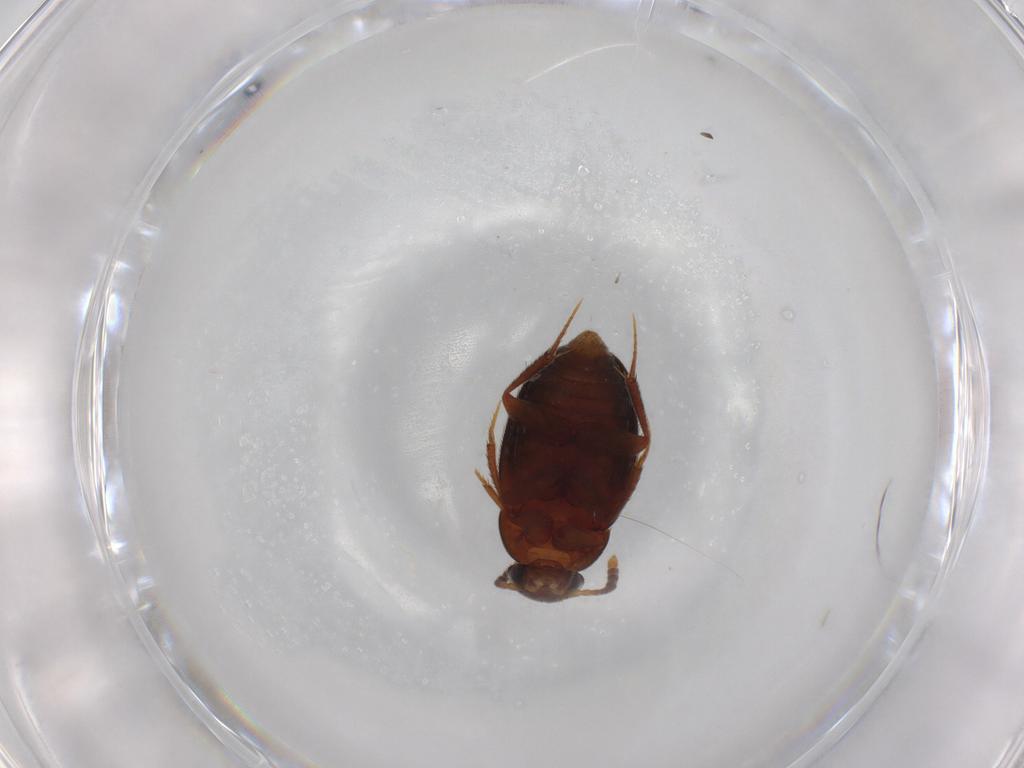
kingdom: Animalia
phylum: Arthropoda
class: Insecta
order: Coleoptera
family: Leiodidae
